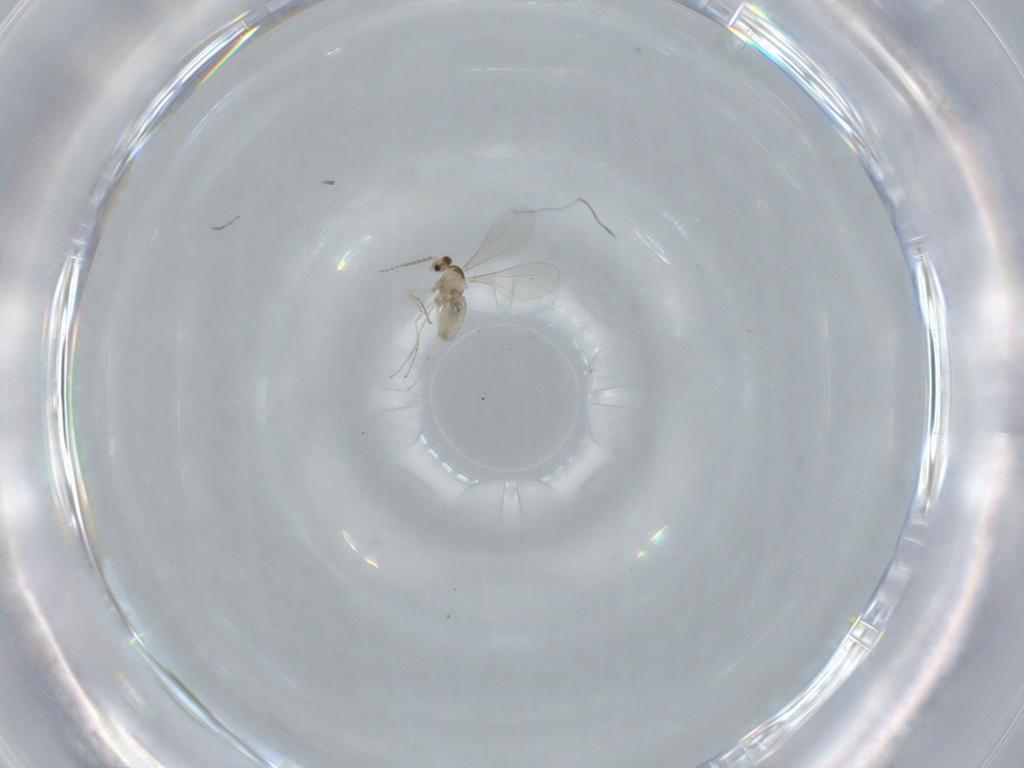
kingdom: Animalia
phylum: Arthropoda
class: Insecta
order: Diptera
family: Cecidomyiidae
